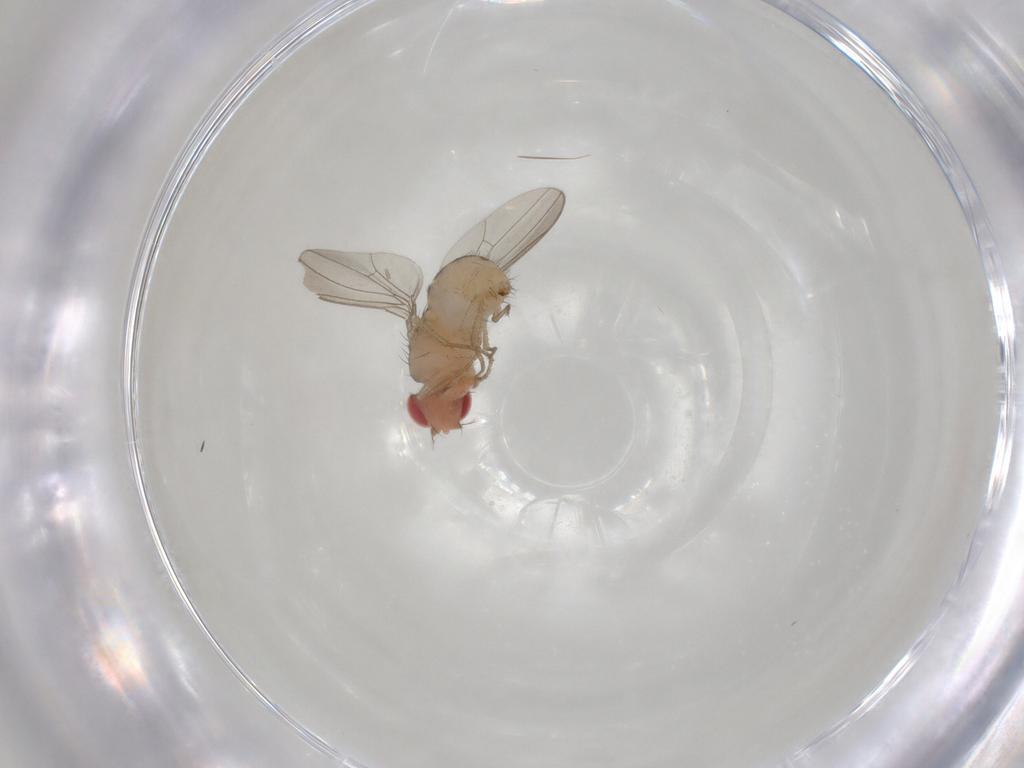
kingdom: Animalia
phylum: Arthropoda
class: Insecta
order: Diptera
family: Drosophilidae
